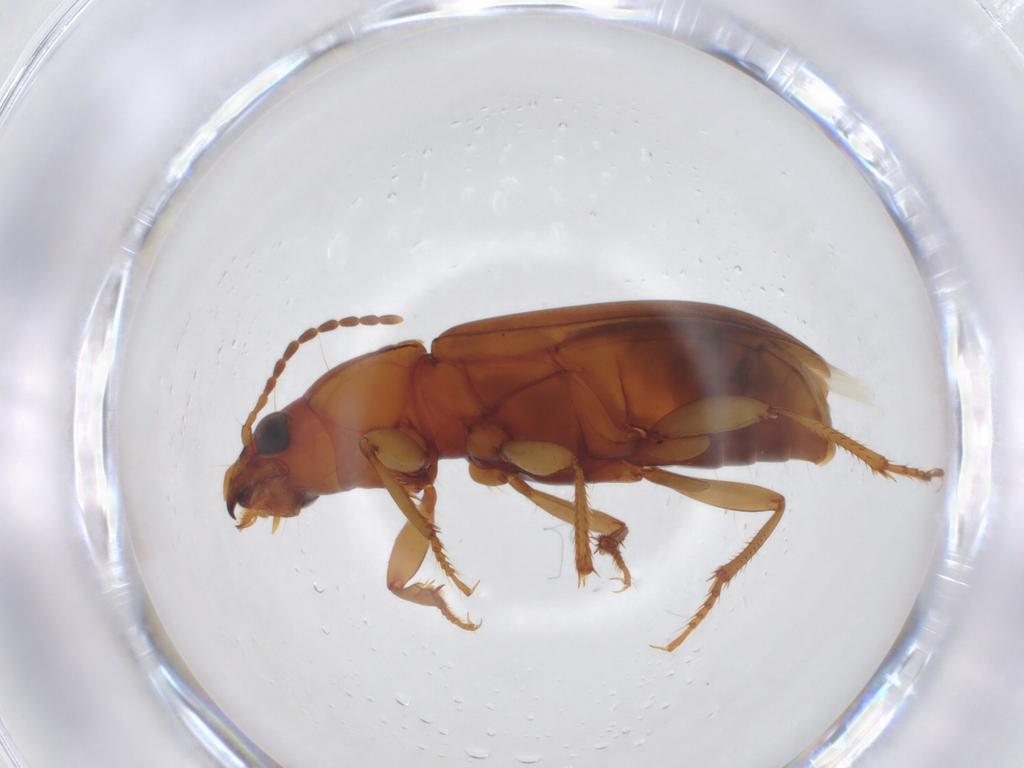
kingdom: Animalia
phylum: Arthropoda
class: Insecta
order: Coleoptera
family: Carabidae
